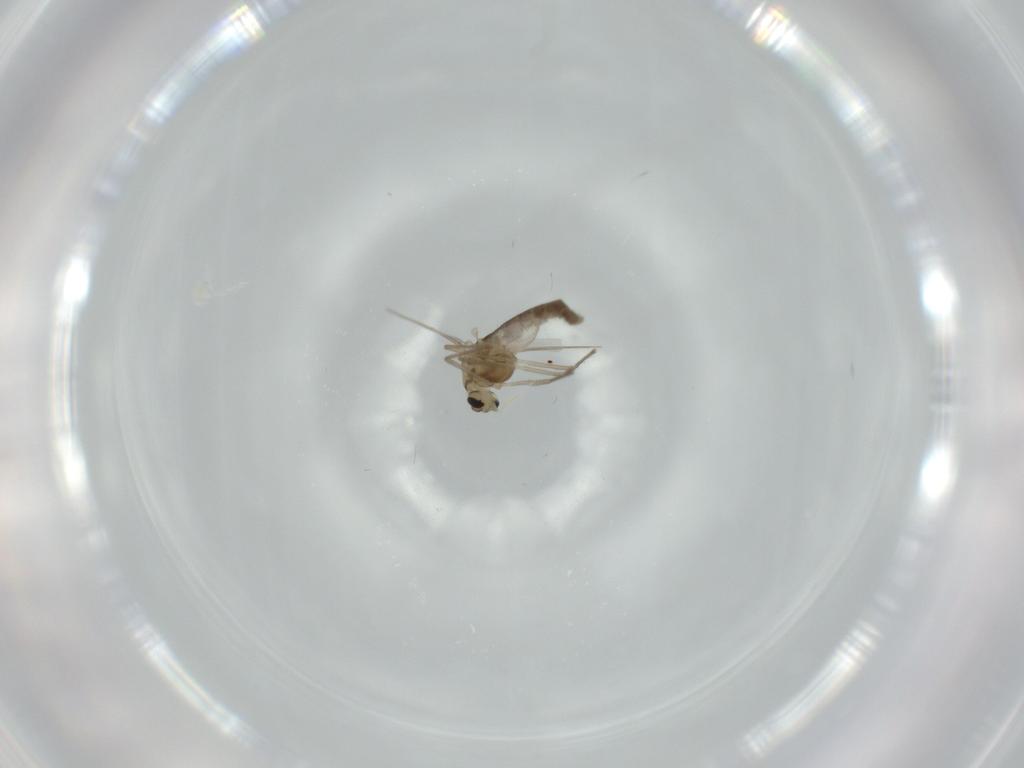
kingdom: Animalia
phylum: Arthropoda
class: Insecta
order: Diptera
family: Chironomidae
